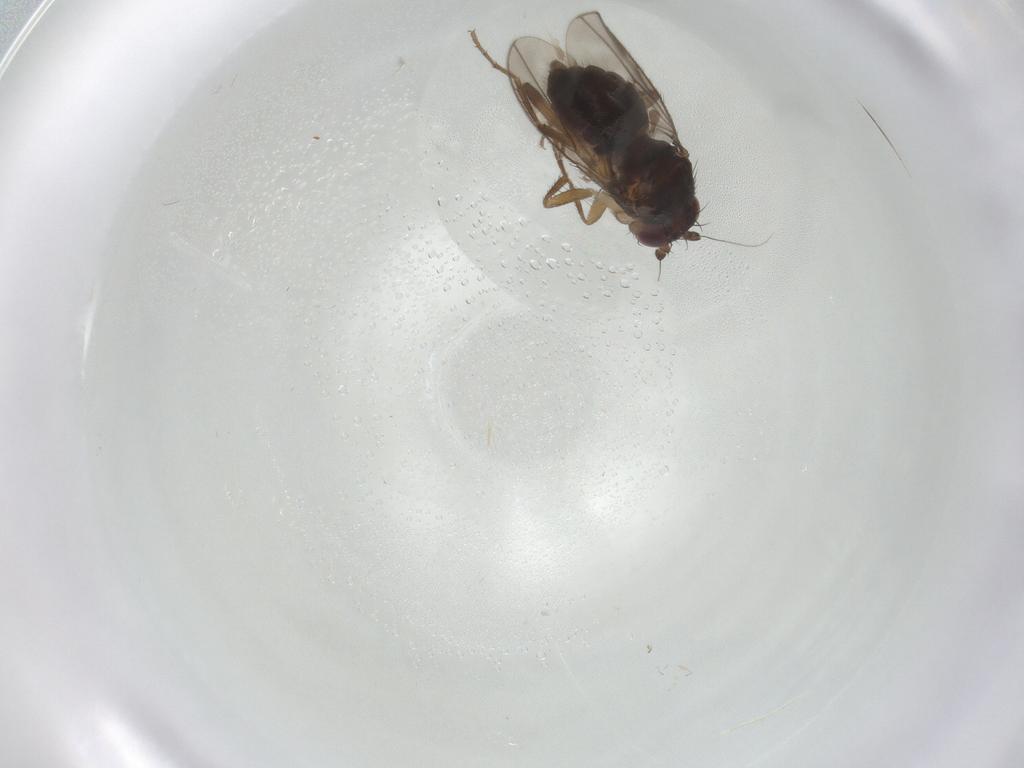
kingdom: Animalia
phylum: Arthropoda
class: Insecta
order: Diptera
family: Sphaeroceridae
